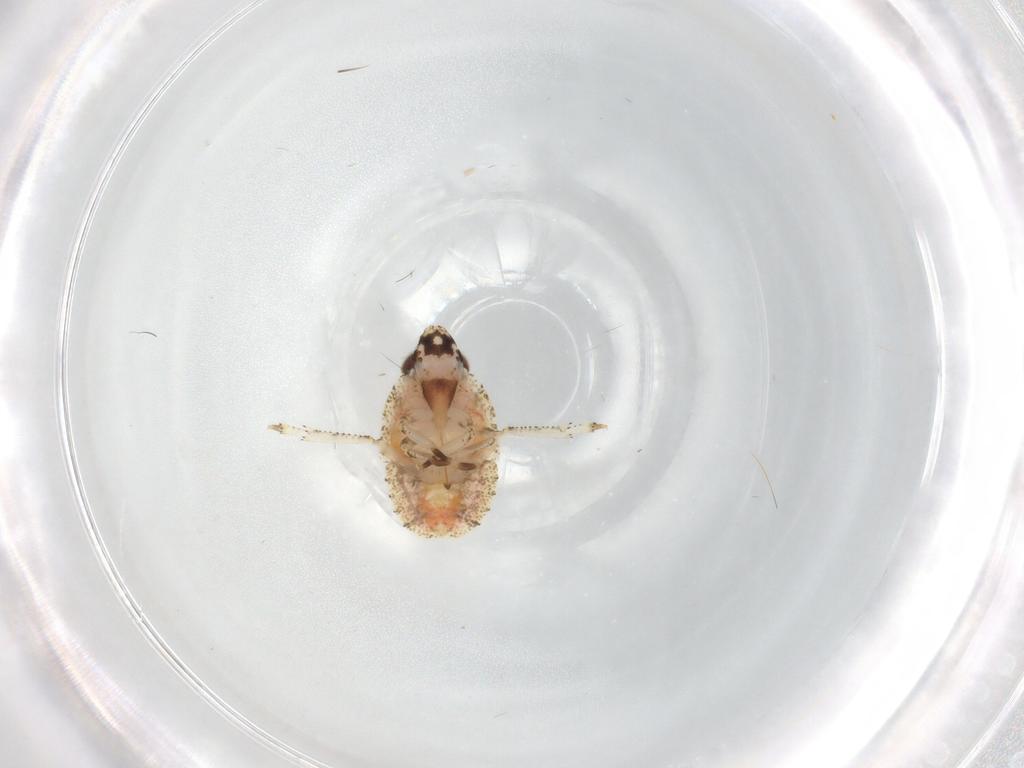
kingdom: Animalia
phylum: Arthropoda
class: Insecta
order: Hemiptera
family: Gengidae
